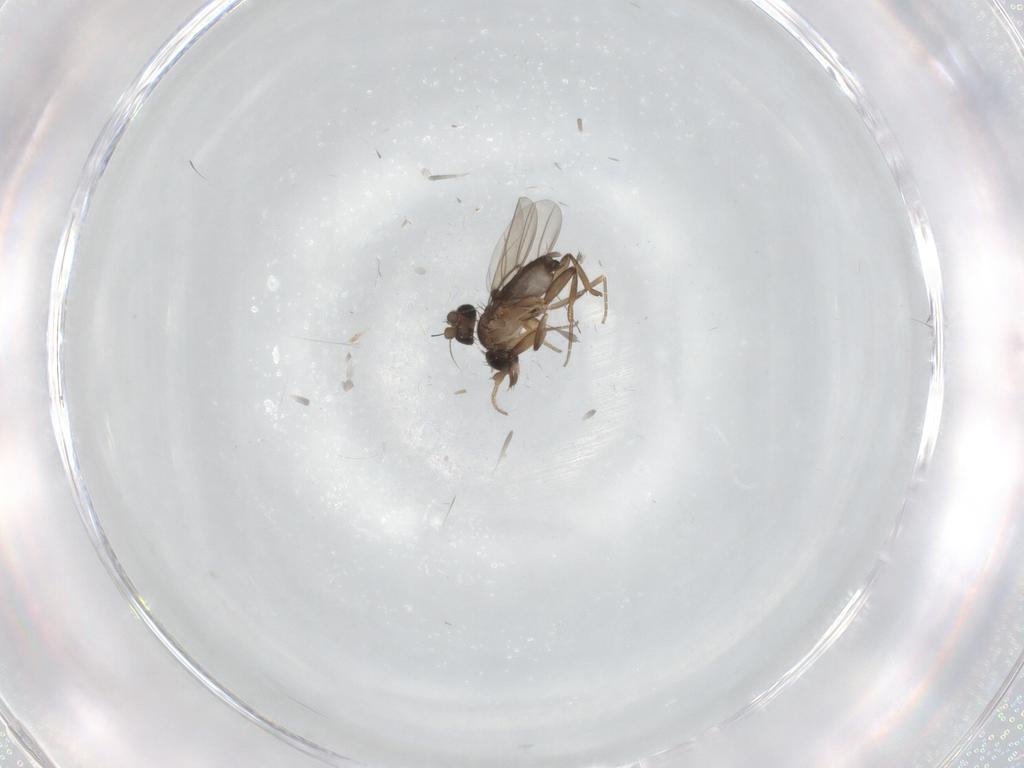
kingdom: Animalia
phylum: Arthropoda
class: Insecta
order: Diptera
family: Phoridae
